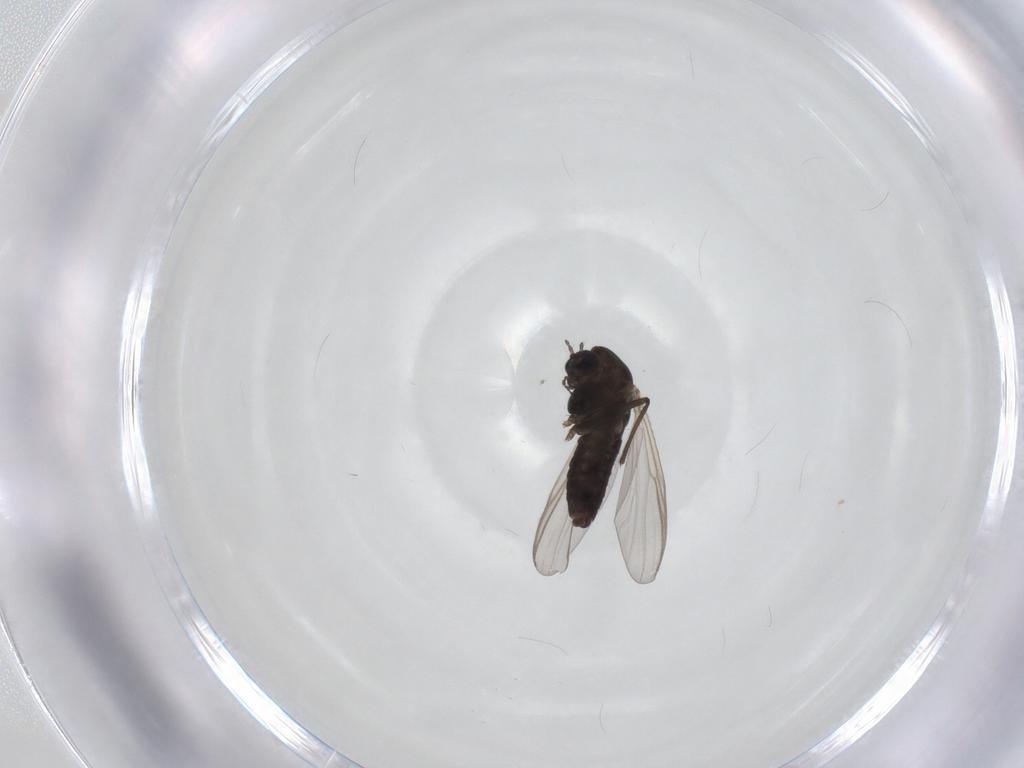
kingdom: Animalia
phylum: Arthropoda
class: Insecta
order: Diptera
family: Chironomidae
